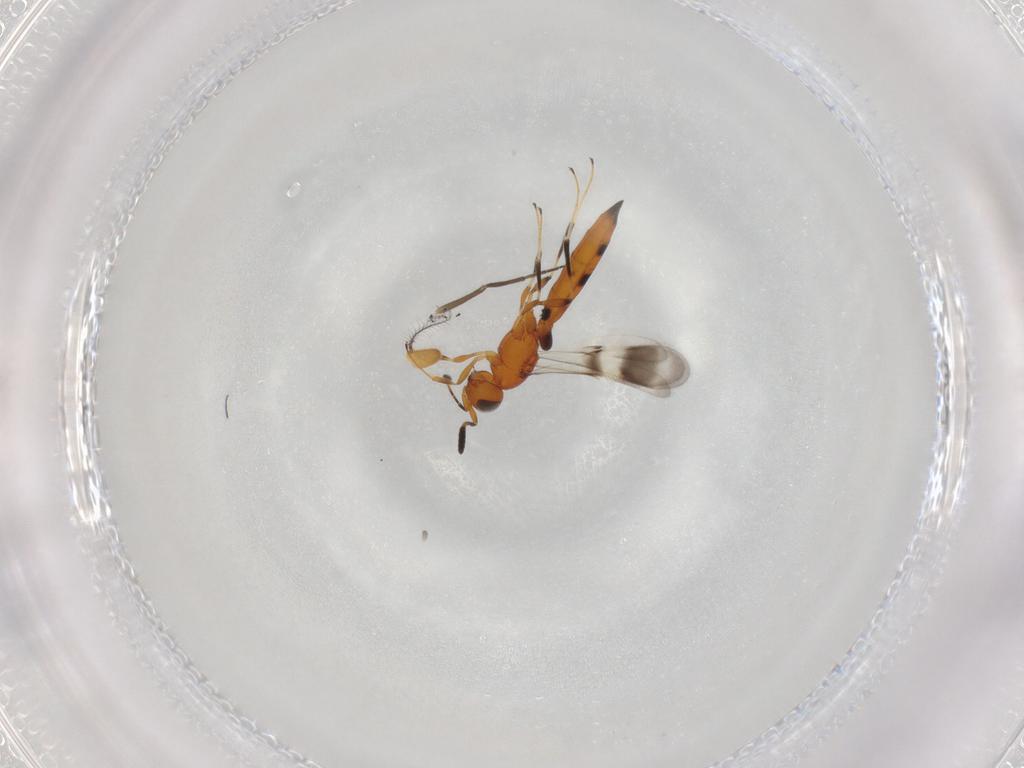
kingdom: Animalia
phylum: Arthropoda
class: Insecta
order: Hymenoptera
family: Scelionidae
